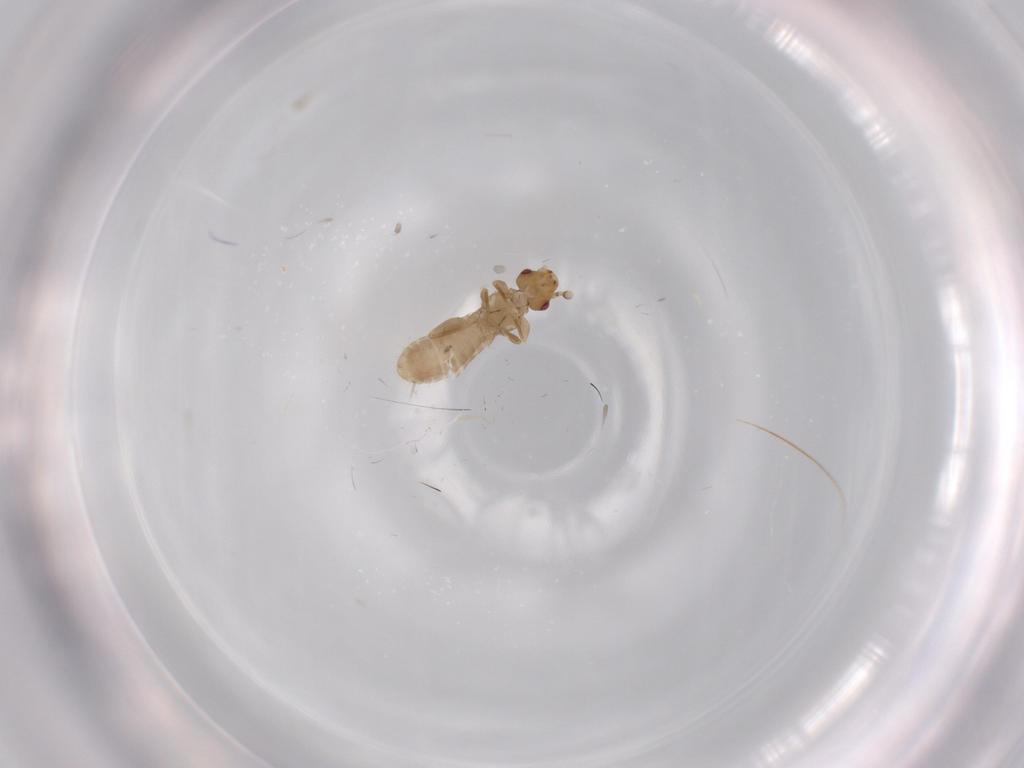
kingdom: Animalia
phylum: Arthropoda
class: Insecta
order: Psocodea
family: Liposcelididae
